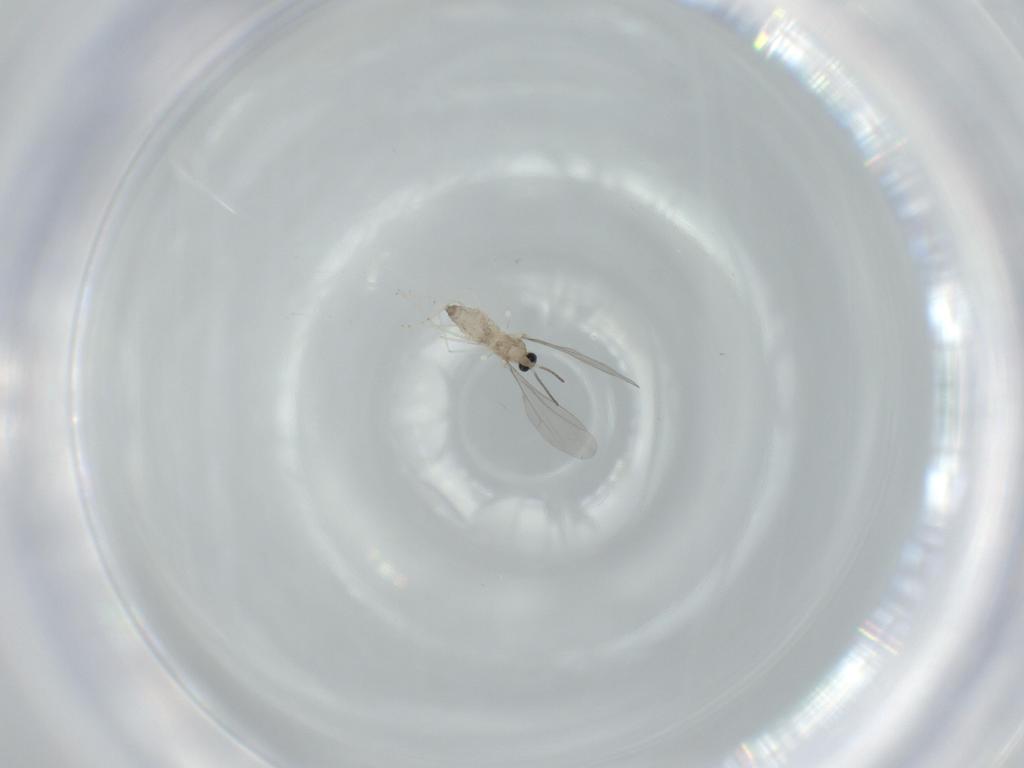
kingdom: Animalia
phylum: Arthropoda
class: Insecta
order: Diptera
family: Cecidomyiidae
